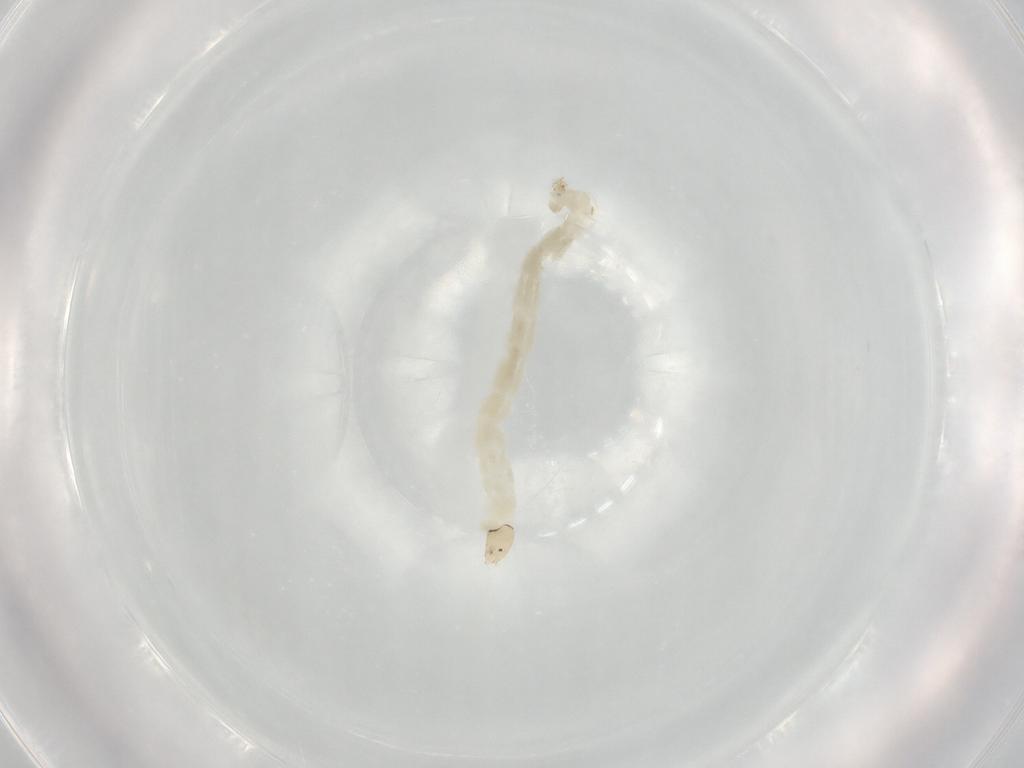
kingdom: Animalia
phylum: Arthropoda
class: Insecta
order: Diptera
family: Chironomidae
